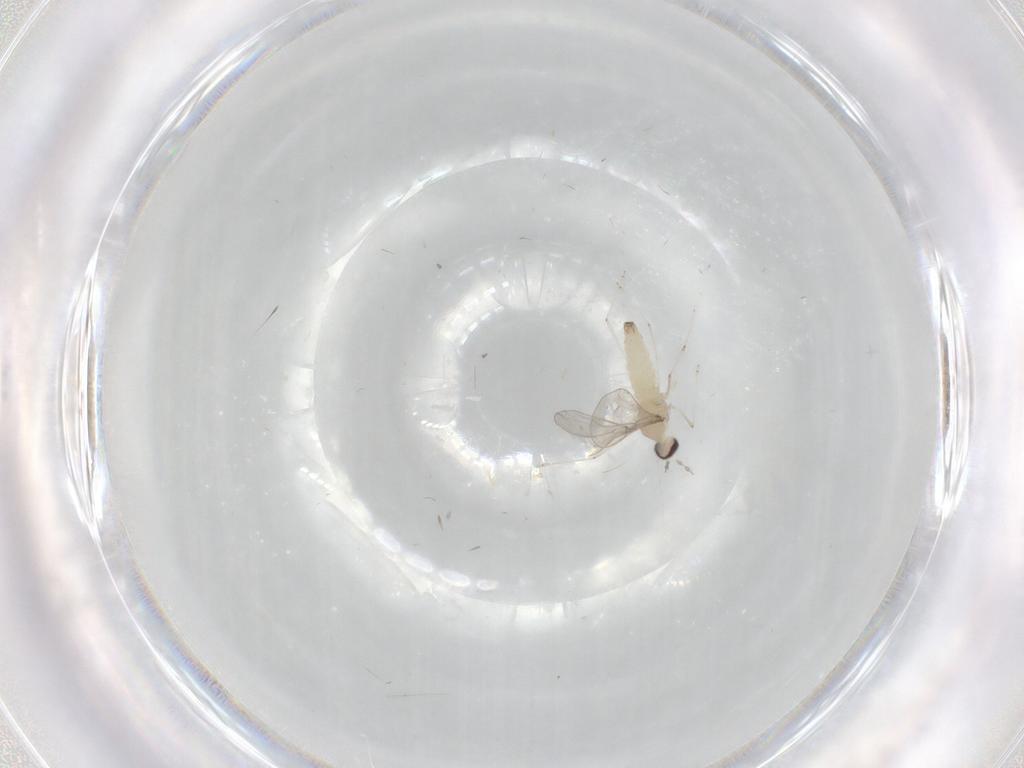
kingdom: Animalia
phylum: Arthropoda
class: Insecta
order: Diptera
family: Cecidomyiidae
